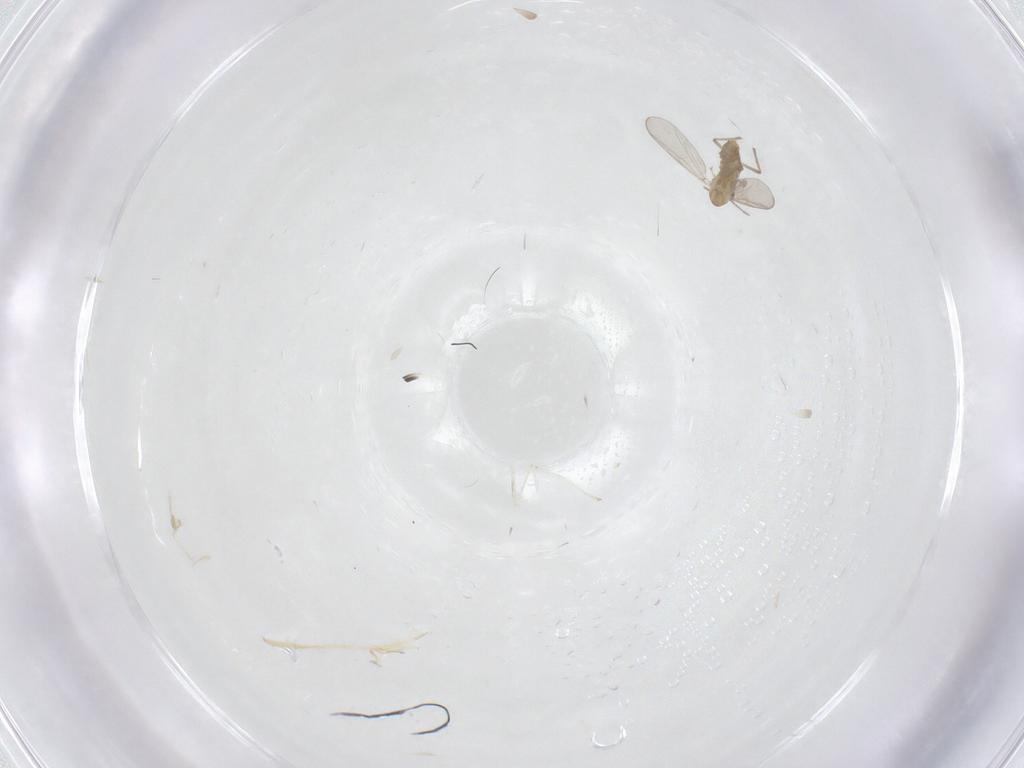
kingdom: Animalia
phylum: Arthropoda
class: Insecta
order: Diptera
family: Chironomidae
